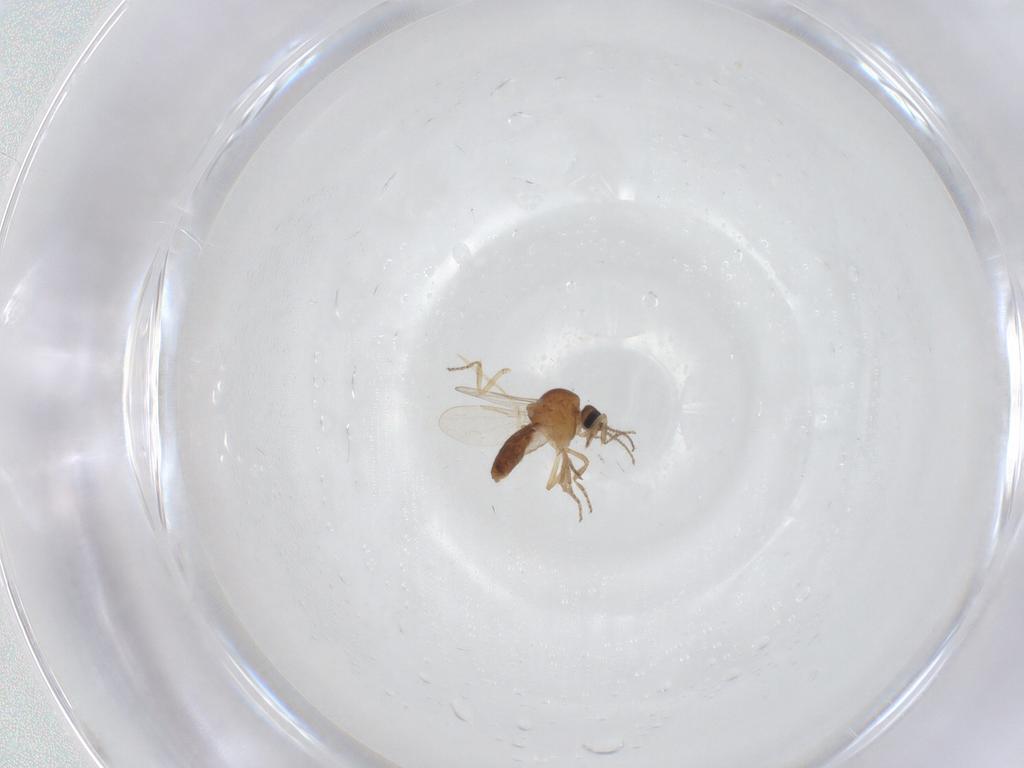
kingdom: Animalia
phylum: Arthropoda
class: Insecta
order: Diptera
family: Ceratopogonidae
